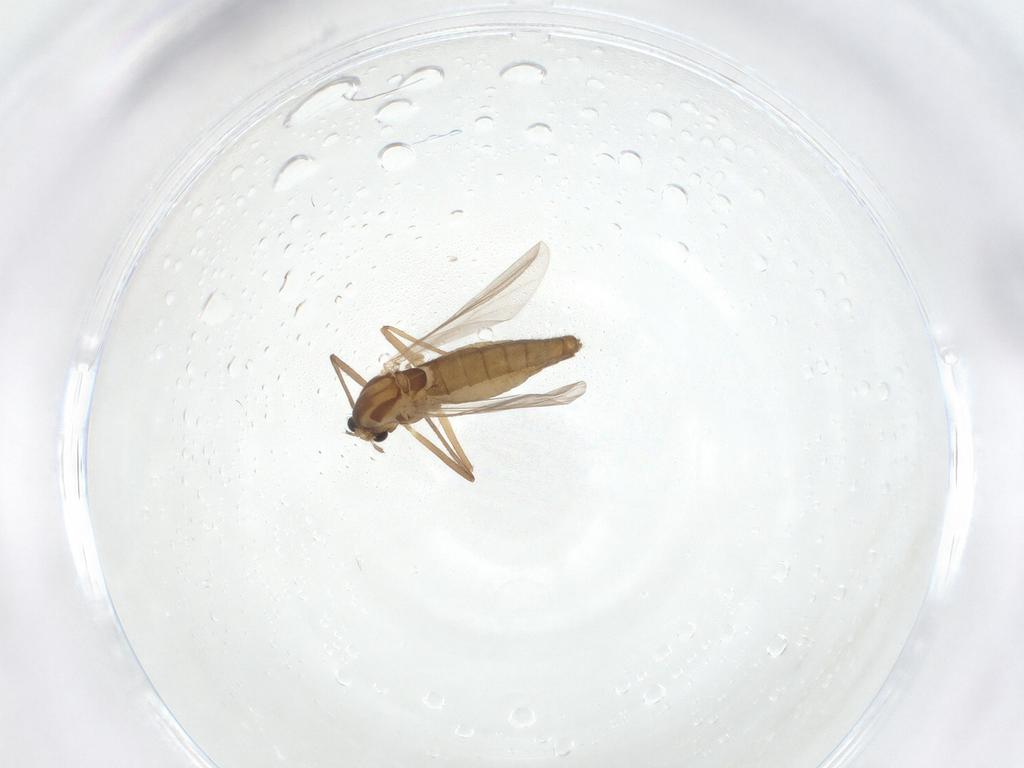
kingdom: Animalia
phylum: Arthropoda
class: Insecta
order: Diptera
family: Chironomidae
